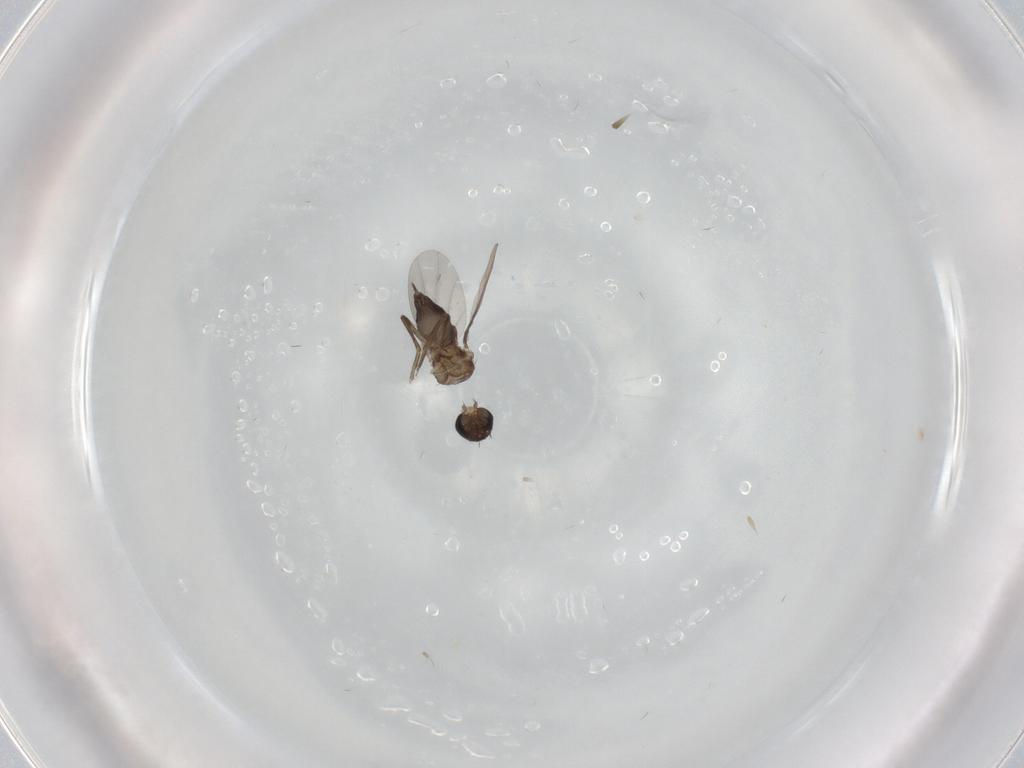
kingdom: Animalia
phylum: Arthropoda
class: Insecta
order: Diptera
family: Phoridae
